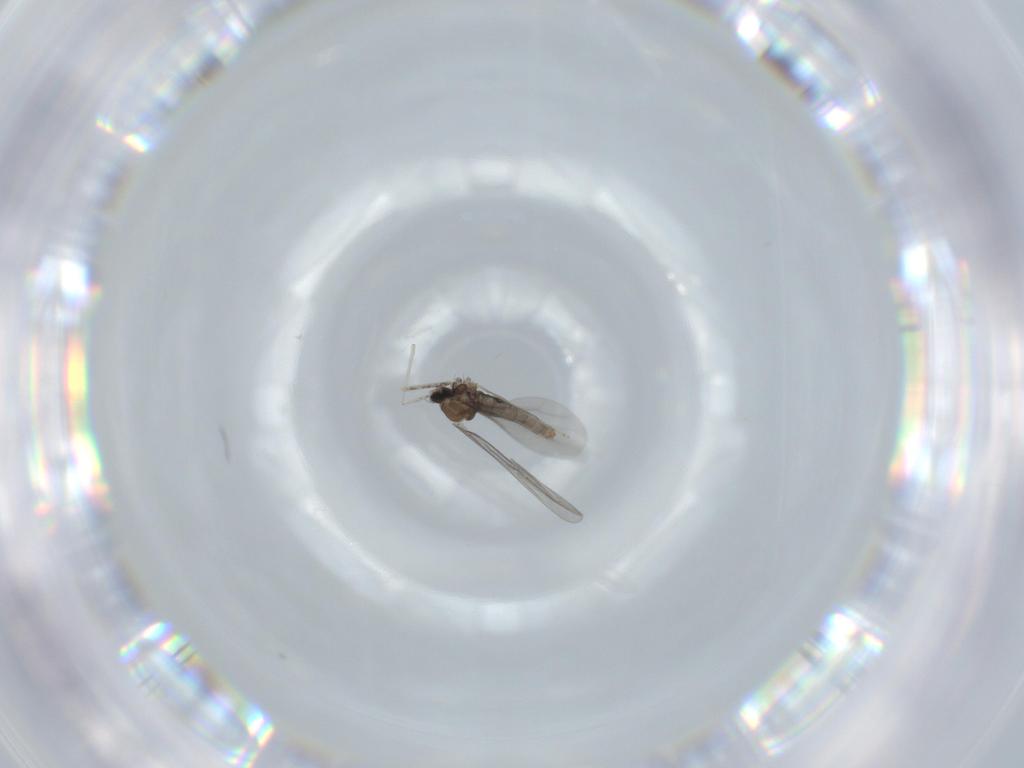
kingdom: Animalia
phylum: Arthropoda
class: Insecta
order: Diptera
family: Cecidomyiidae
